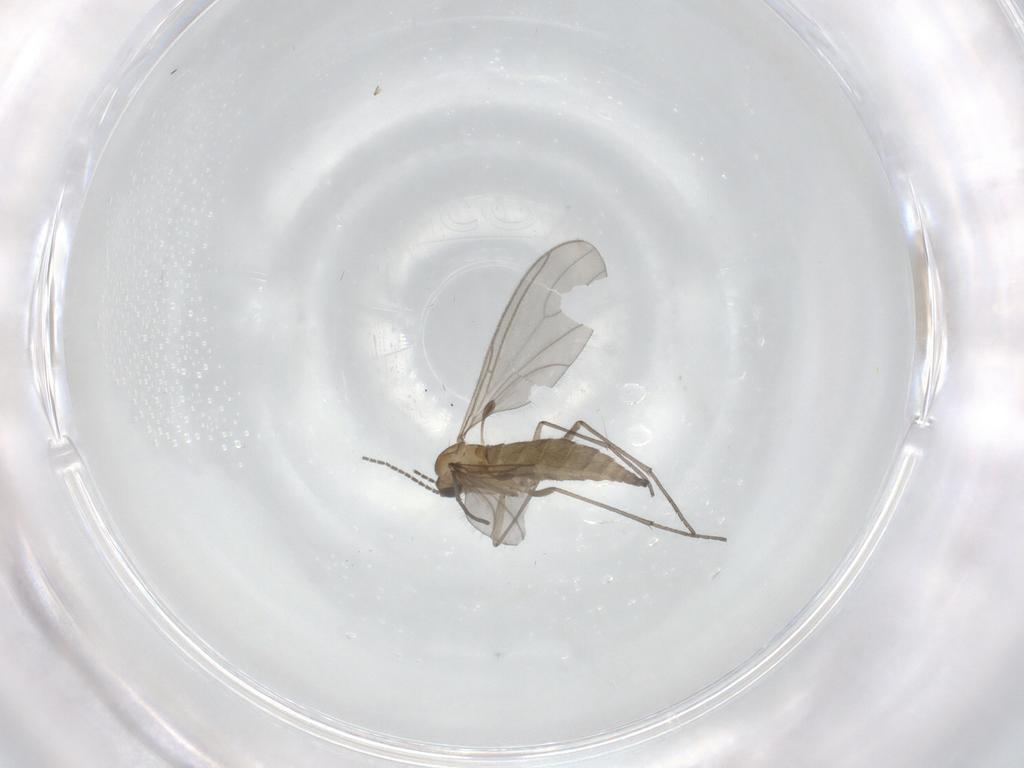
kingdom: Animalia
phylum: Arthropoda
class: Insecta
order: Diptera
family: Sciaridae
